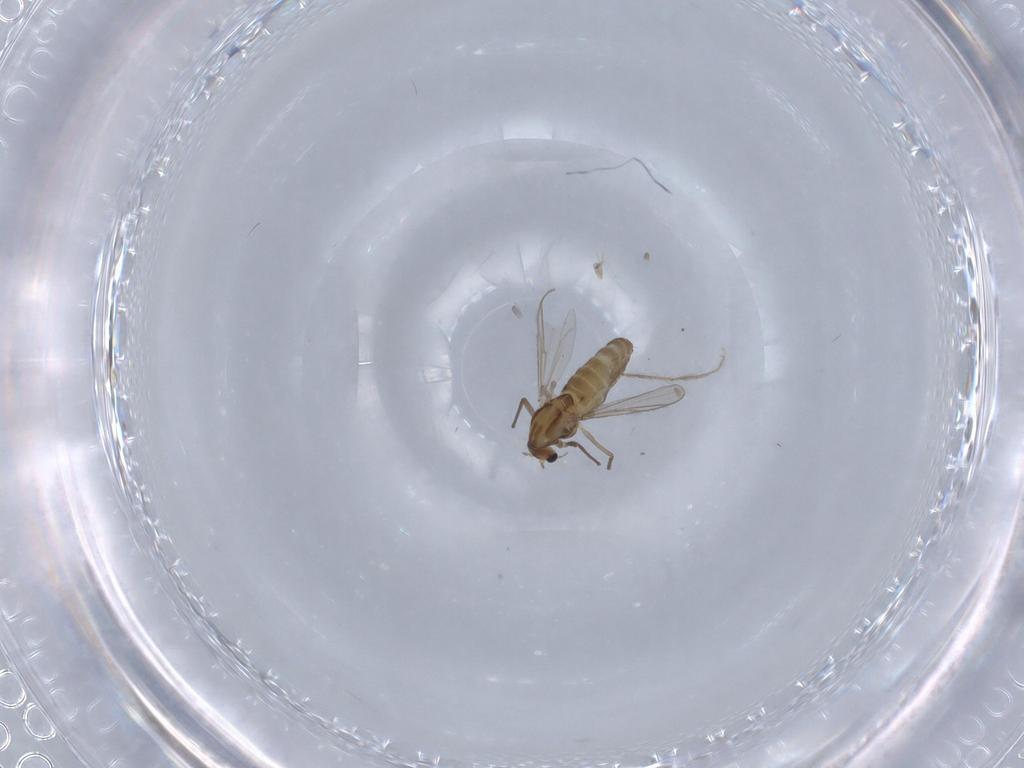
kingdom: Animalia
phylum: Arthropoda
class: Insecta
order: Diptera
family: Chironomidae
